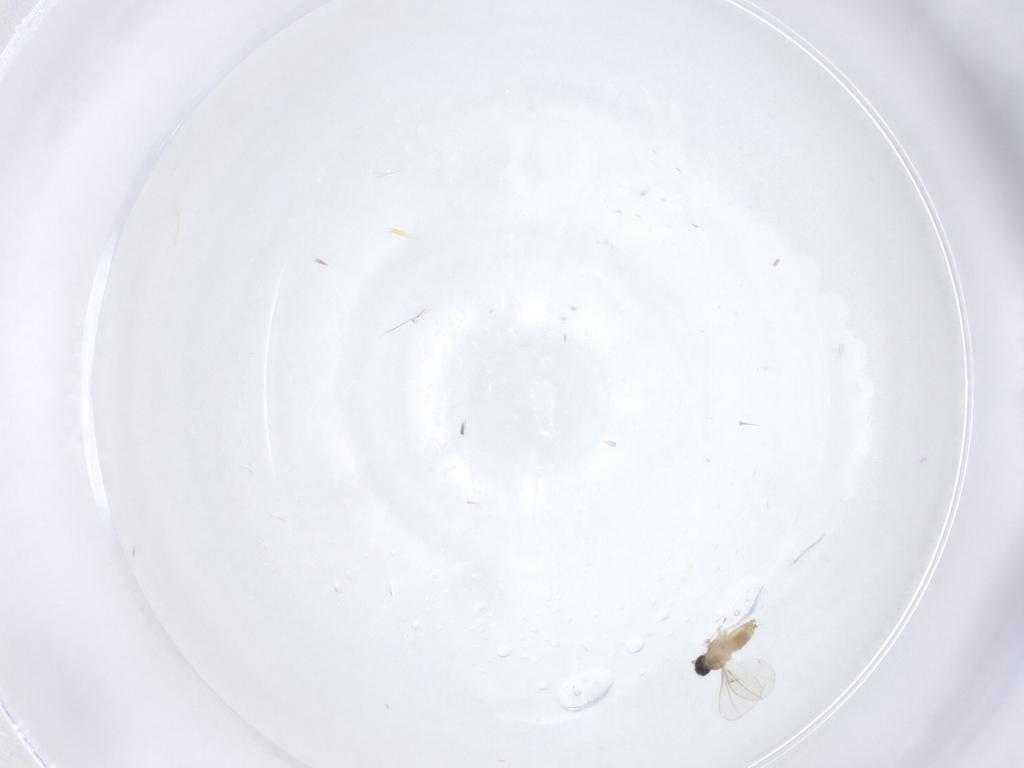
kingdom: Animalia
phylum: Arthropoda
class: Insecta
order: Diptera
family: Cecidomyiidae
